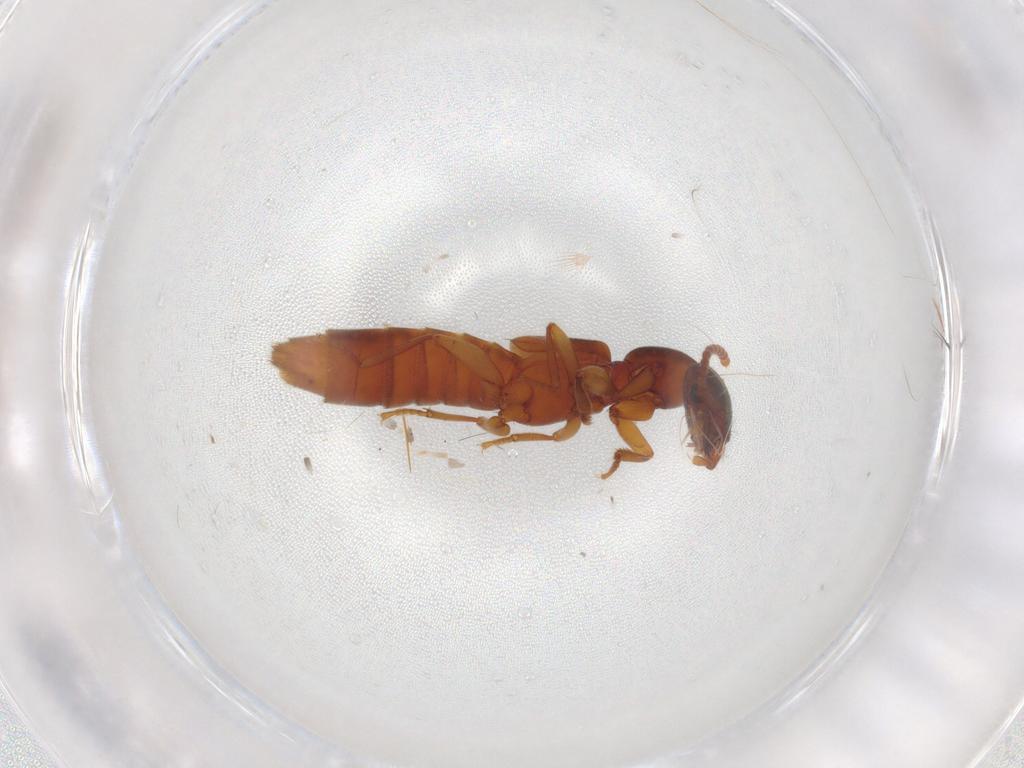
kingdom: Animalia
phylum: Arthropoda
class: Insecta
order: Coleoptera
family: Staphylinidae
